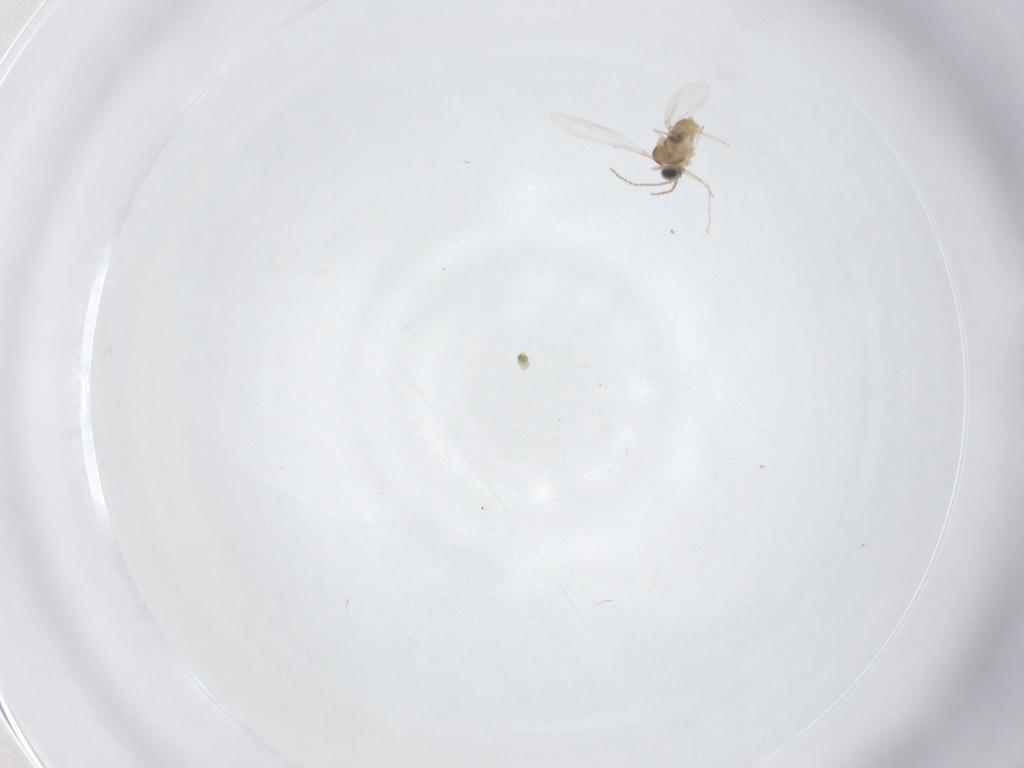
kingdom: Animalia
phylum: Arthropoda
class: Insecta
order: Diptera
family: Cecidomyiidae
